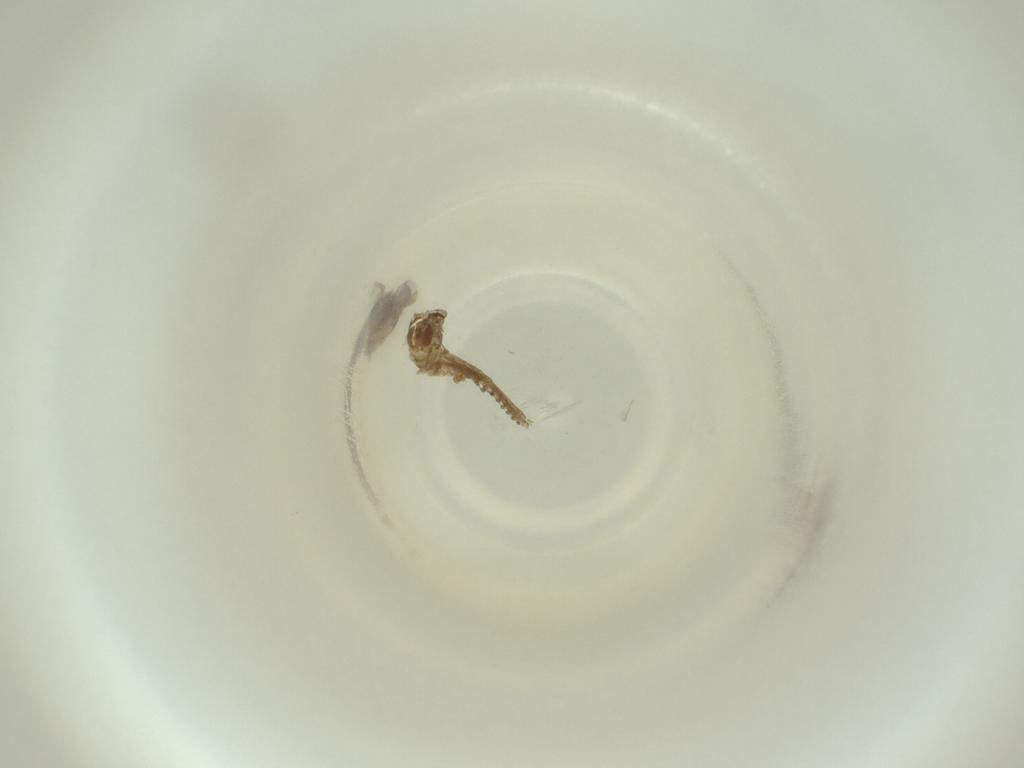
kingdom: Animalia
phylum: Arthropoda
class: Insecta
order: Diptera
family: Cecidomyiidae
